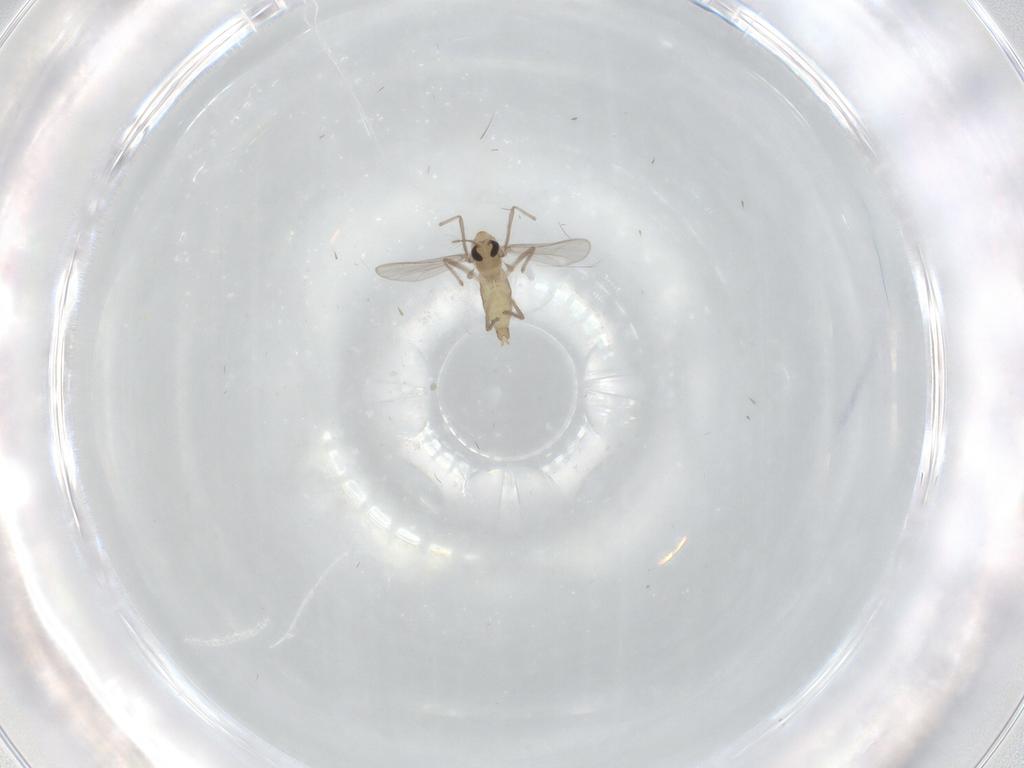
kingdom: Animalia
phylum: Arthropoda
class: Insecta
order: Diptera
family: Chironomidae
